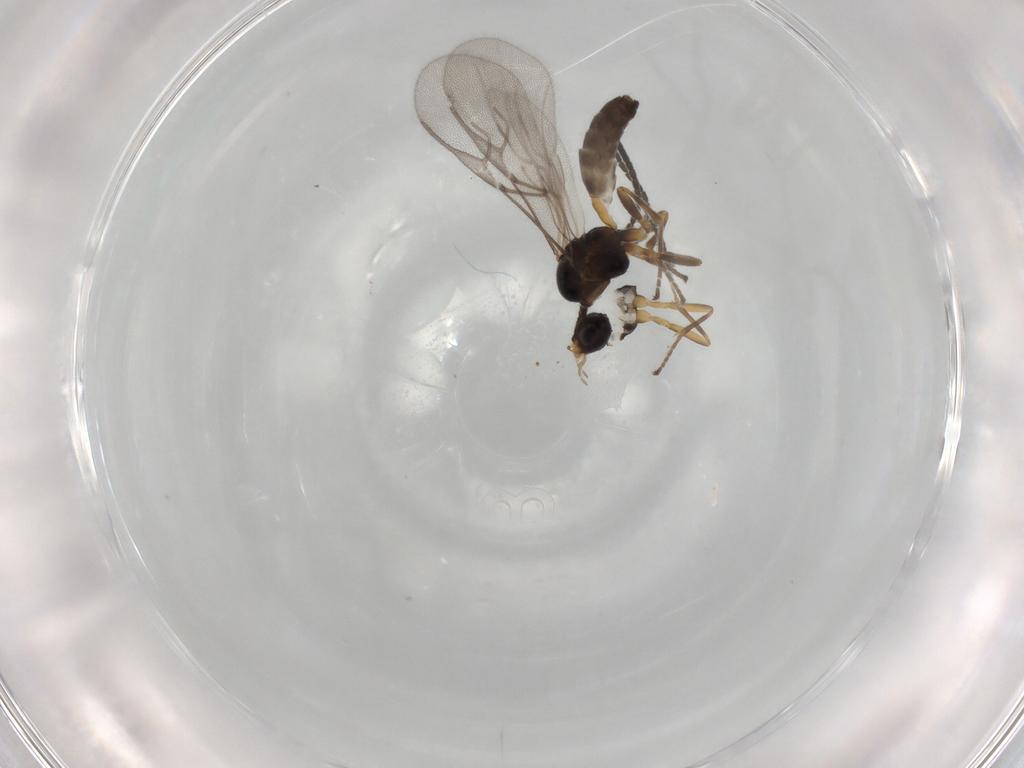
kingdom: Animalia
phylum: Arthropoda
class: Insecta
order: Hymenoptera
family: Braconidae
